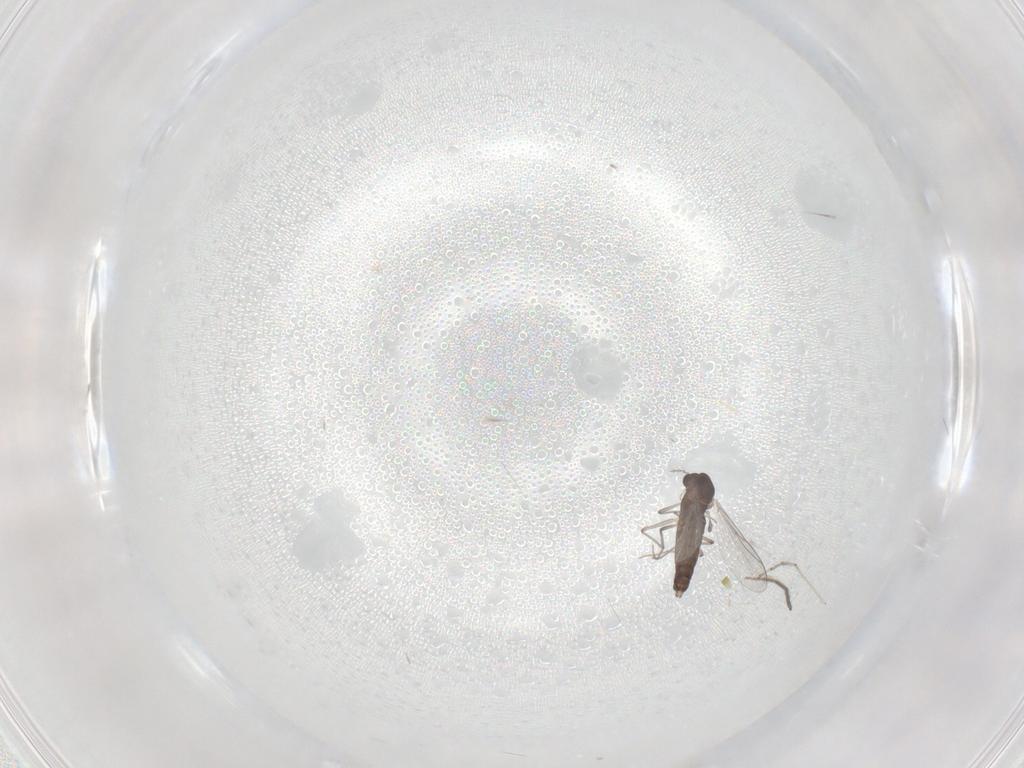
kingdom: Animalia
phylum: Arthropoda
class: Insecta
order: Diptera
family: Chironomidae
